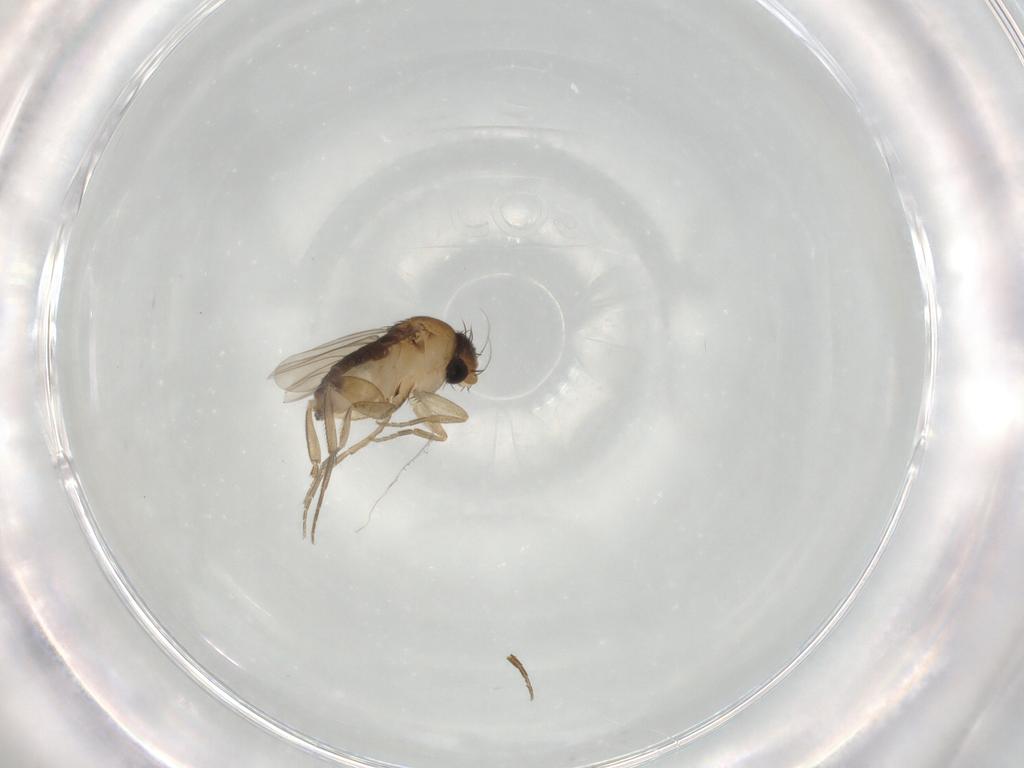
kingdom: Animalia
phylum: Arthropoda
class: Insecta
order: Diptera
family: Phoridae
